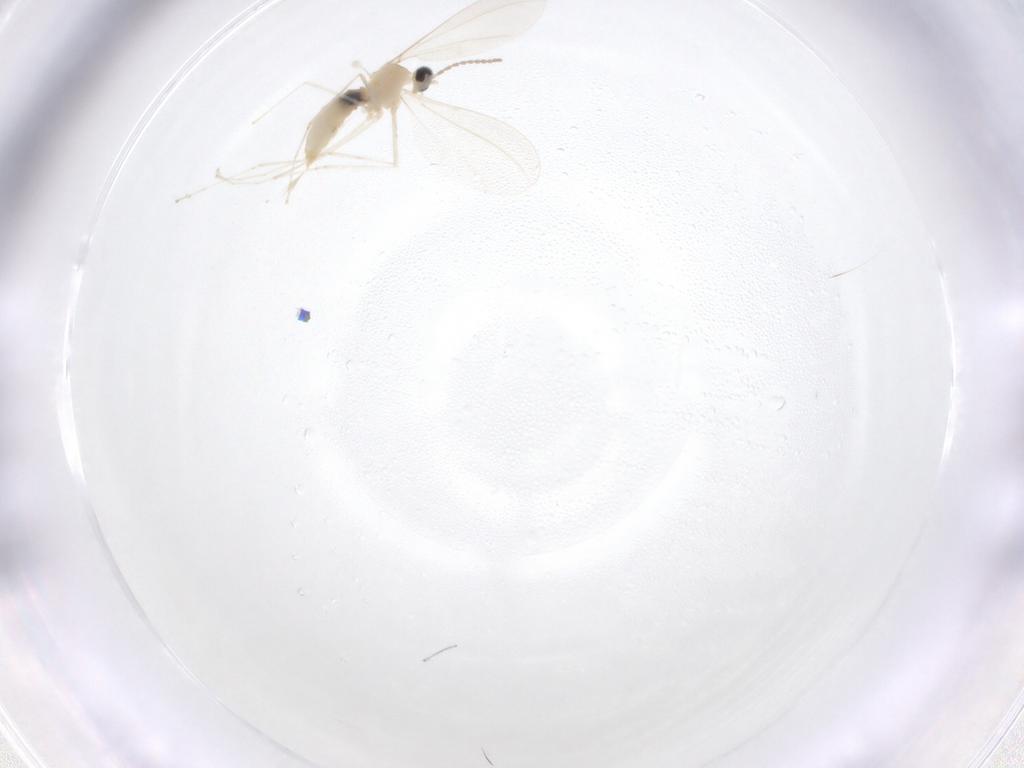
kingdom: Animalia
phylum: Arthropoda
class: Insecta
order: Diptera
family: Cecidomyiidae
